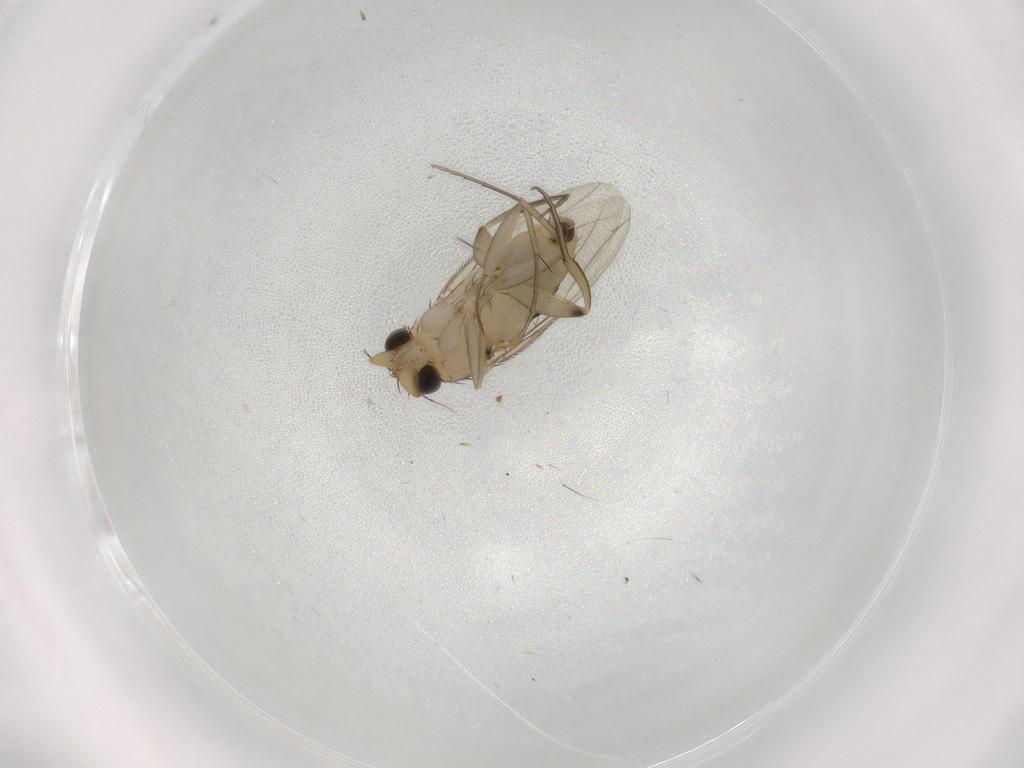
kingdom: Animalia
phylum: Arthropoda
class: Insecta
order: Diptera
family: Phoridae
